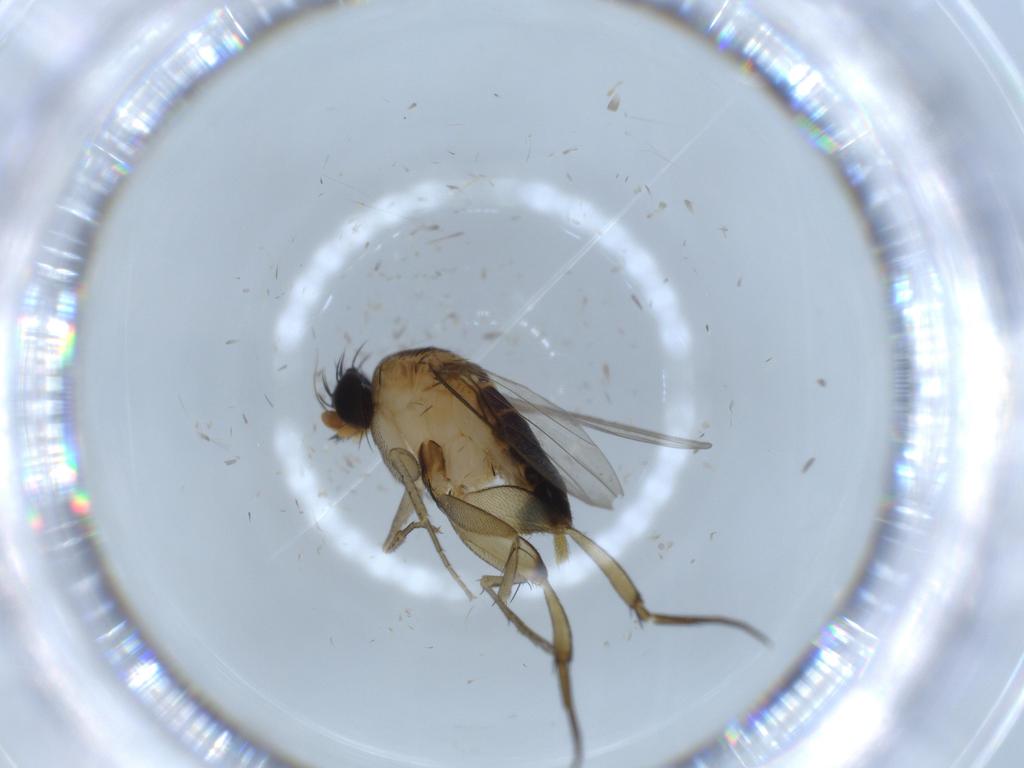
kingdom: Animalia
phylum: Arthropoda
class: Insecta
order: Diptera
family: Phoridae
